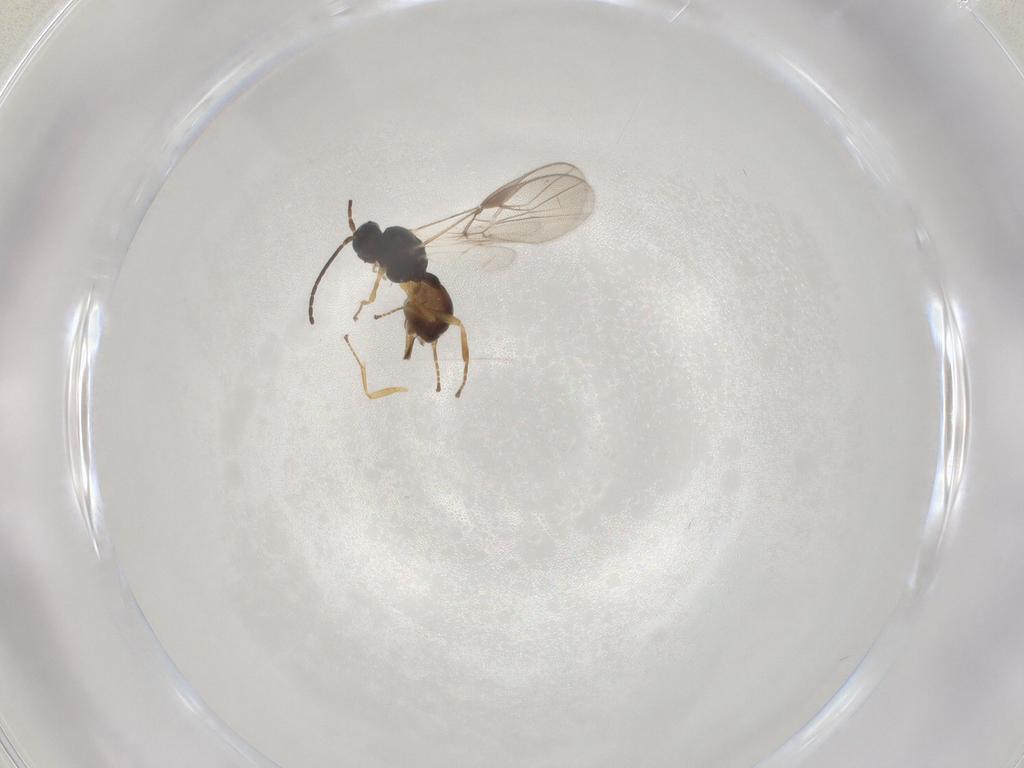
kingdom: Animalia
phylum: Arthropoda
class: Insecta
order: Hymenoptera
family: Braconidae
